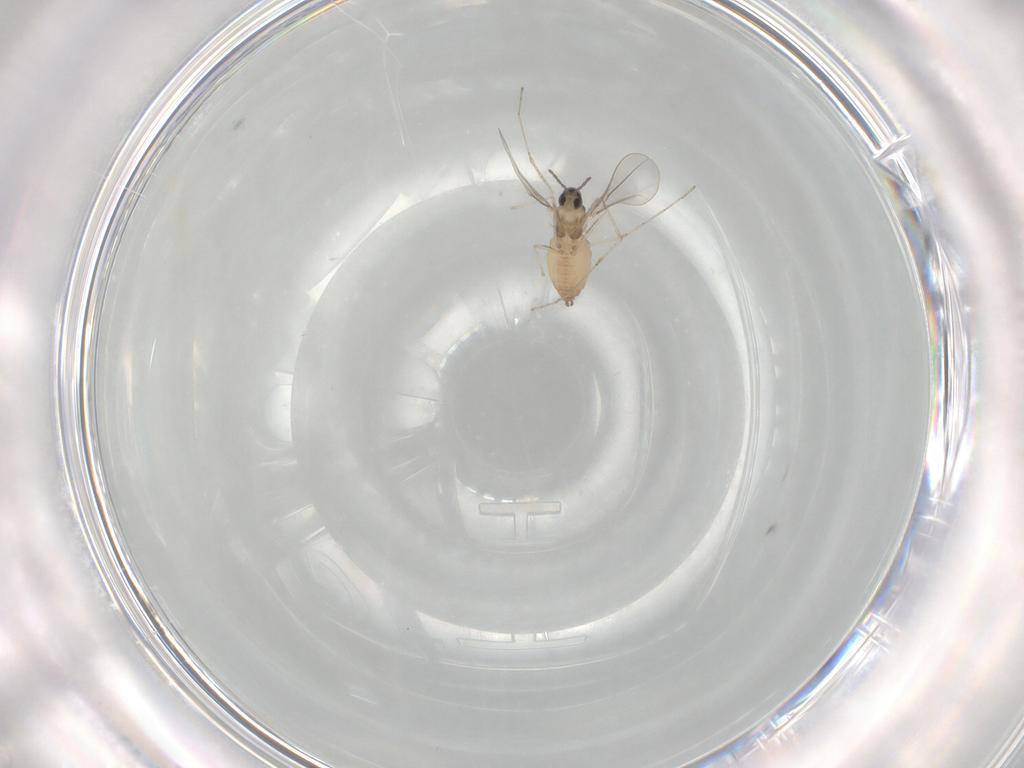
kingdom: Animalia
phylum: Arthropoda
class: Insecta
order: Diptera
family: Cecidomyiidae
